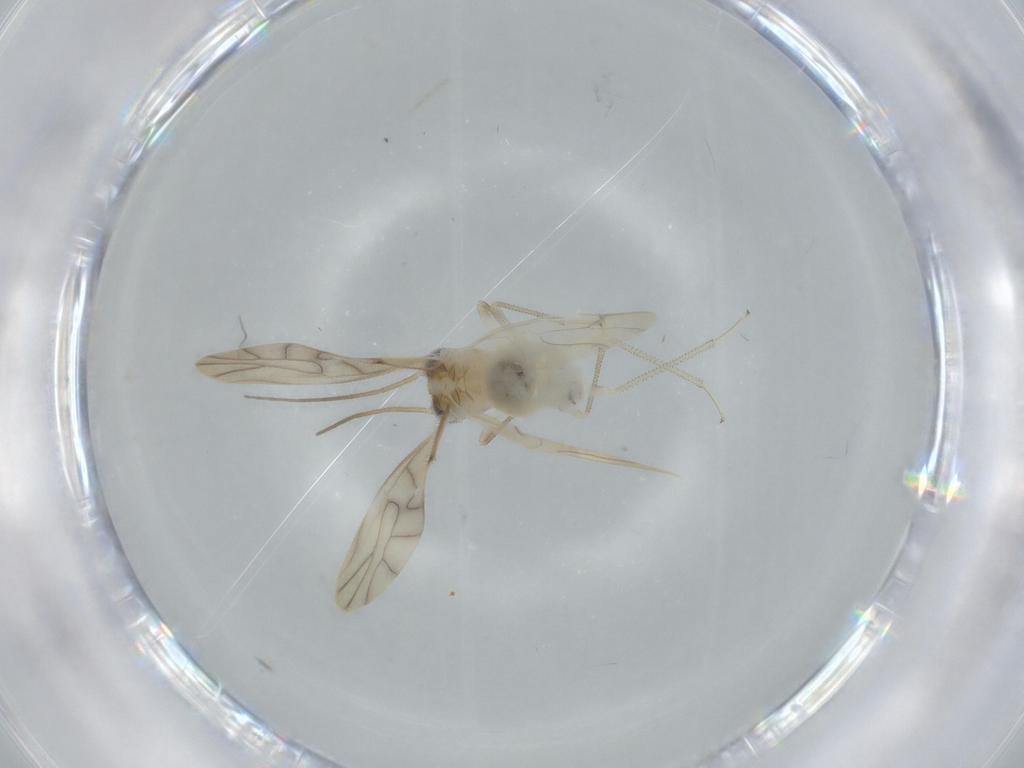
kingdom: Animalia
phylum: Arthropoda
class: Insecta
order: Psocodea
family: Caeciliusidae
